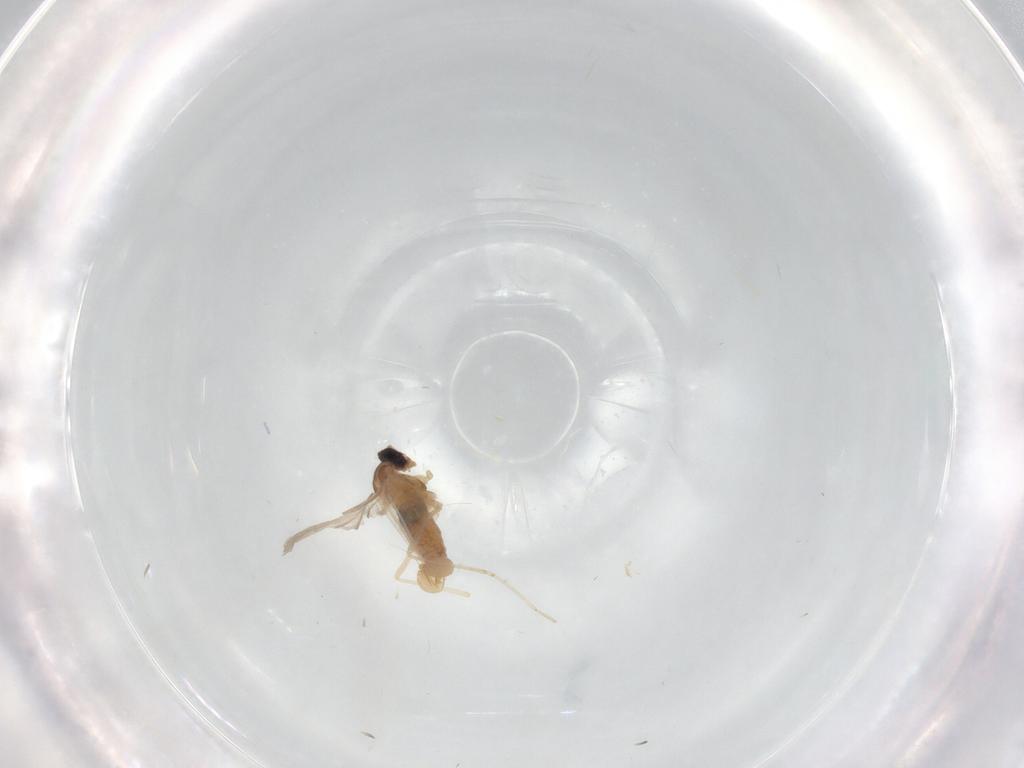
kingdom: Animalia
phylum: Arthropoda
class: Insecta
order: Diptera
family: Cecidomyiidae
